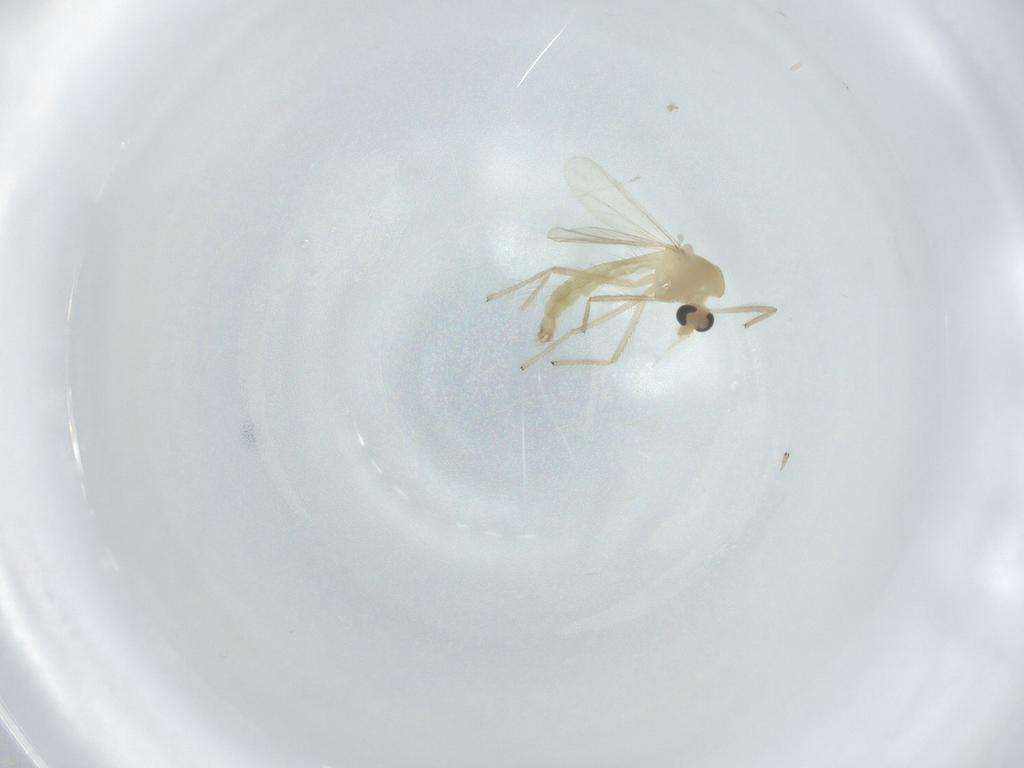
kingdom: Animalia
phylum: Arthropoda
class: Insecta
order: Diptera
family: Chironomidae
